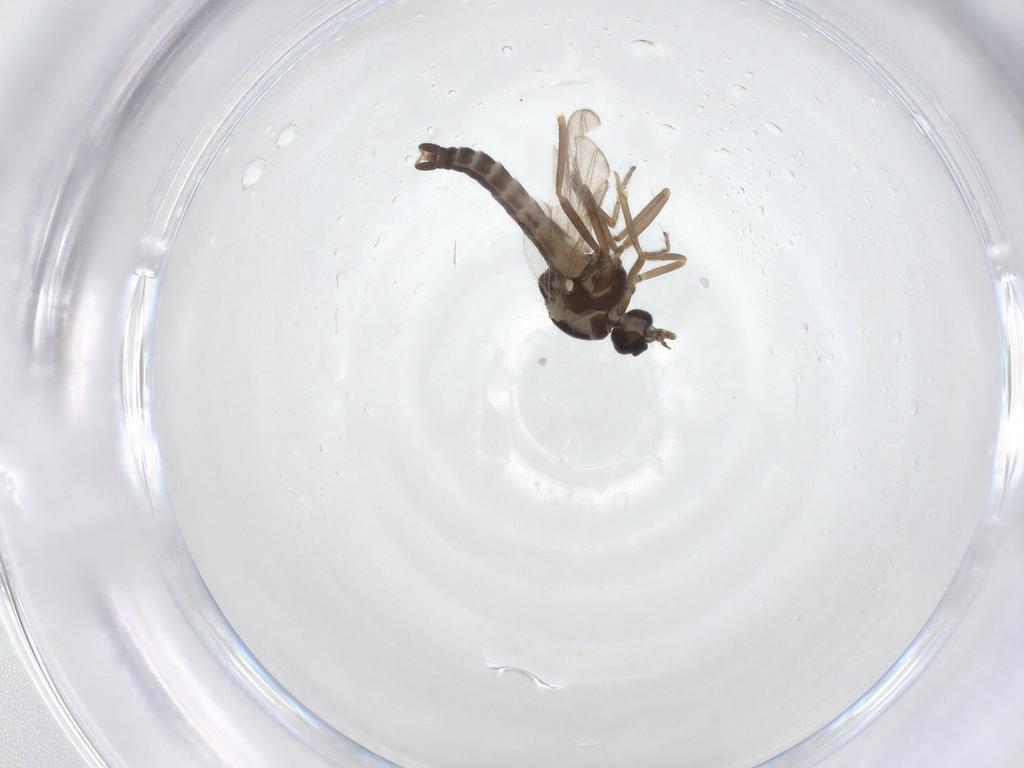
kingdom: Animalia
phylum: Arthropoda
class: Insecta
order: Diptera
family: Ceratopogonidae
